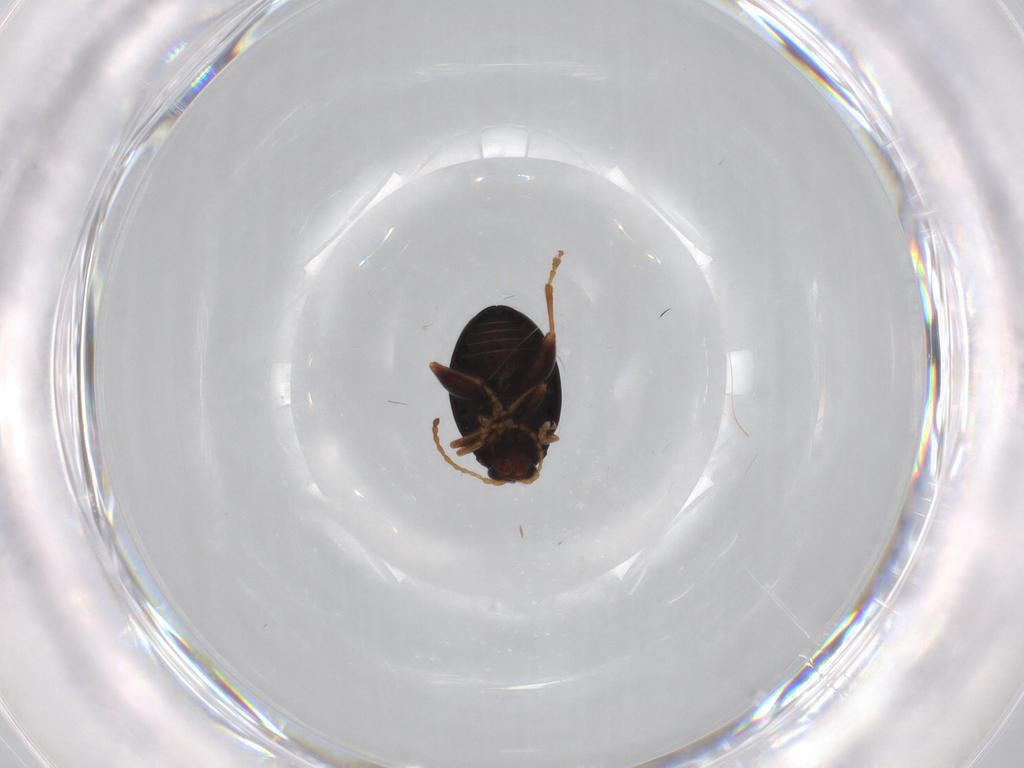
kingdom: Animalia
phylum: Arthropoda
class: Insecta
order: Coleoptera
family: Chrysomelidae
